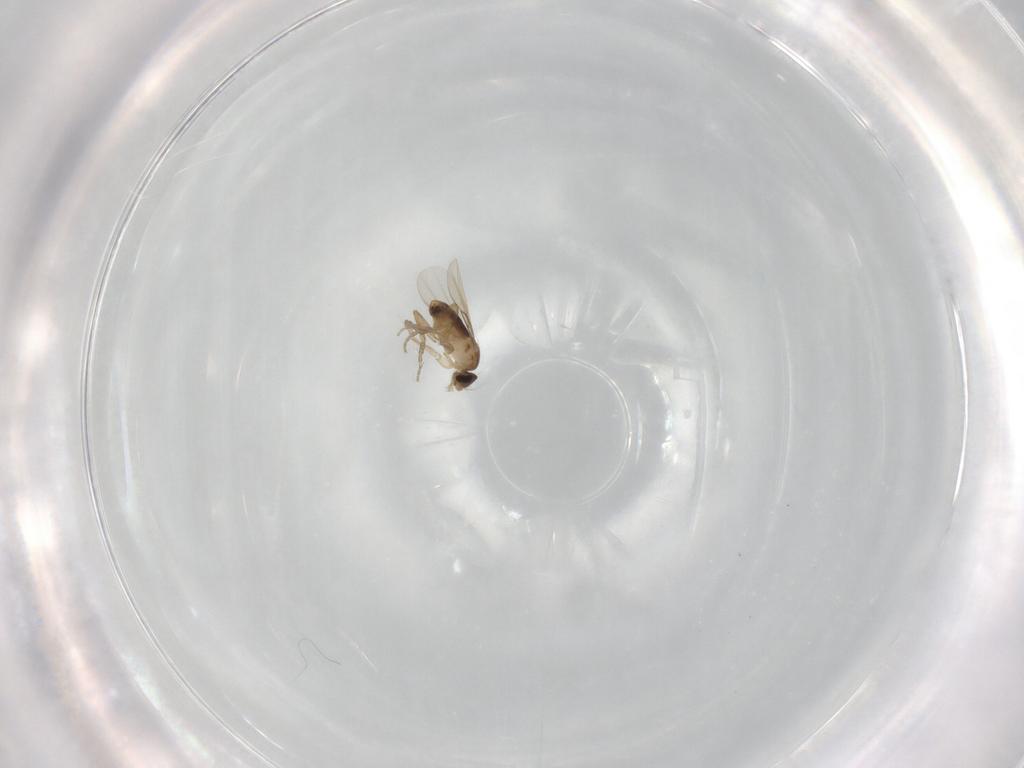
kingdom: Animalia
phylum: Arthropoda
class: Insecta
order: Diptera
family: Phoridae
